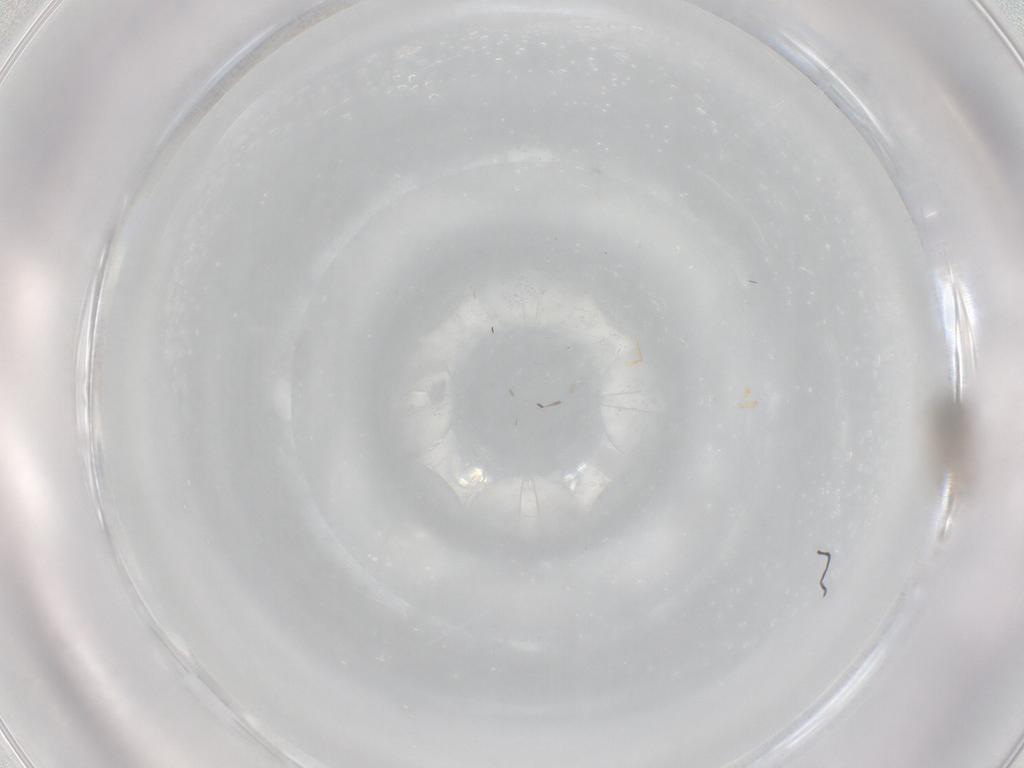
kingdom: Animalia
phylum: Arthropoda
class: Insecta
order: Diptera
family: Psychodidae
